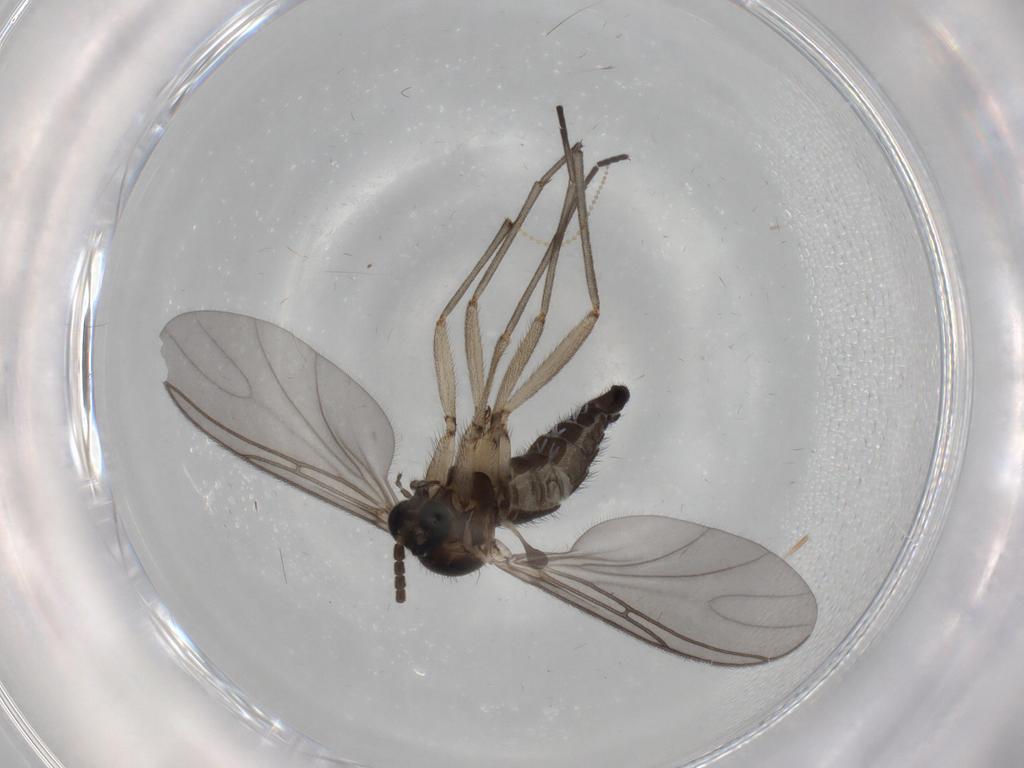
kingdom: Animalia
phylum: Arthropoda
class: Insecta
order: Diptera
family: Sciaridae
